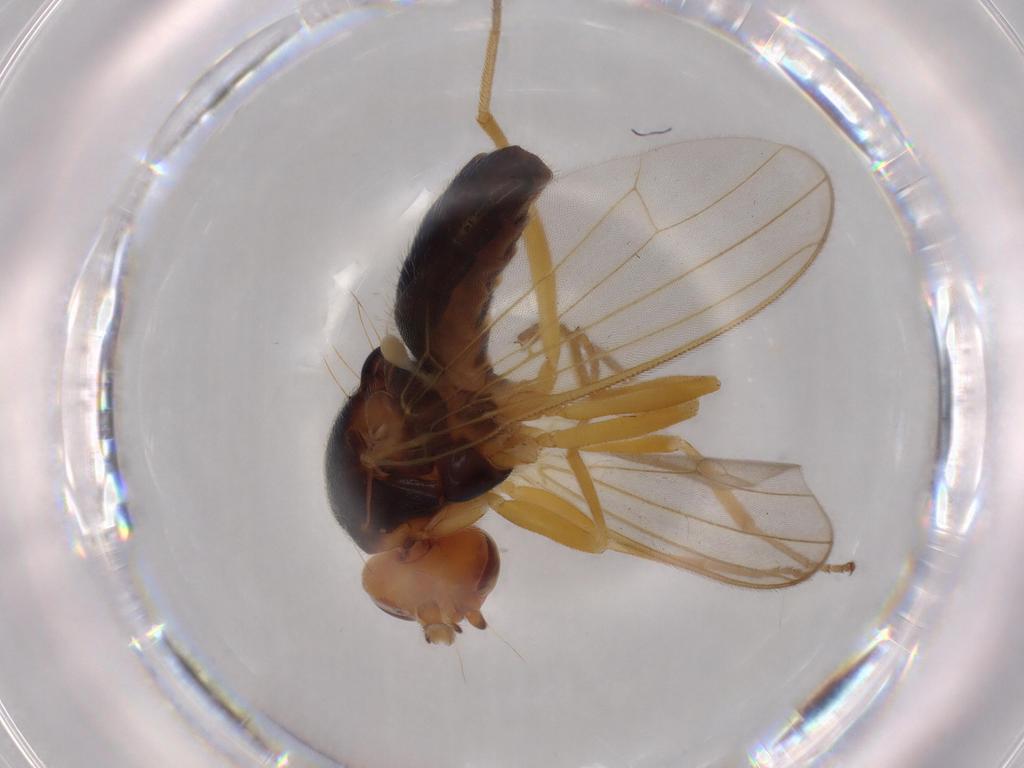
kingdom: Animalia
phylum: Arthropoda
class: Insecta
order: Diptera
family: Hybotidae
